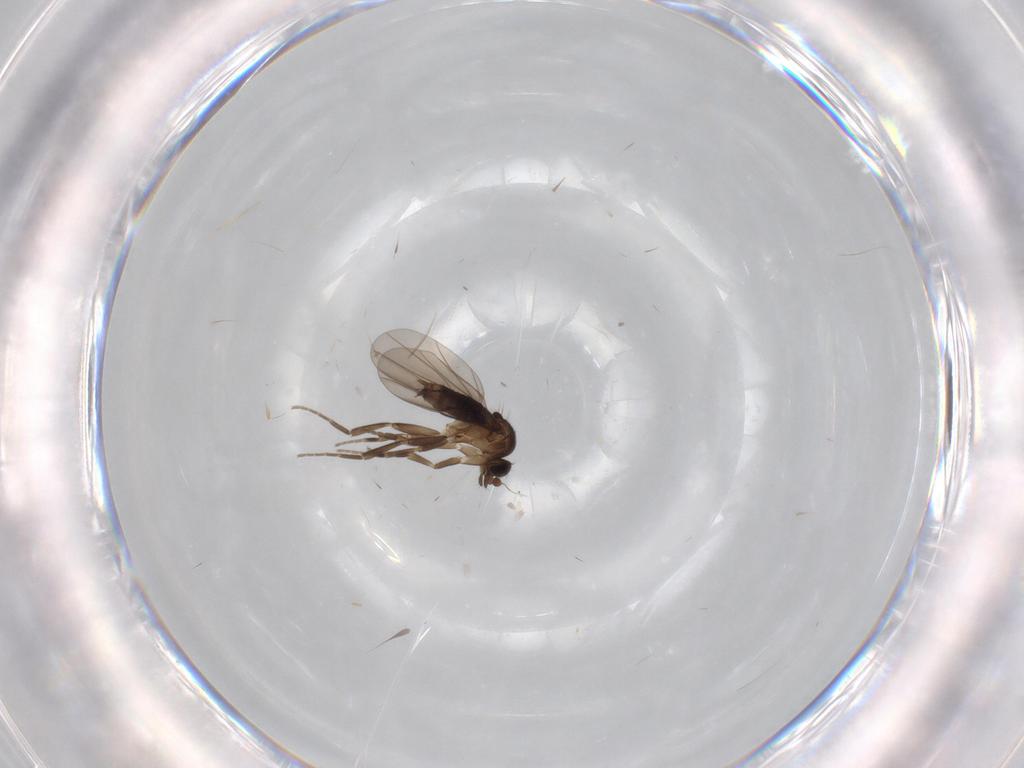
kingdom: Animalia
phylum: Arthropoda
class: Insecta
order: Diptera
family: Phoridae
